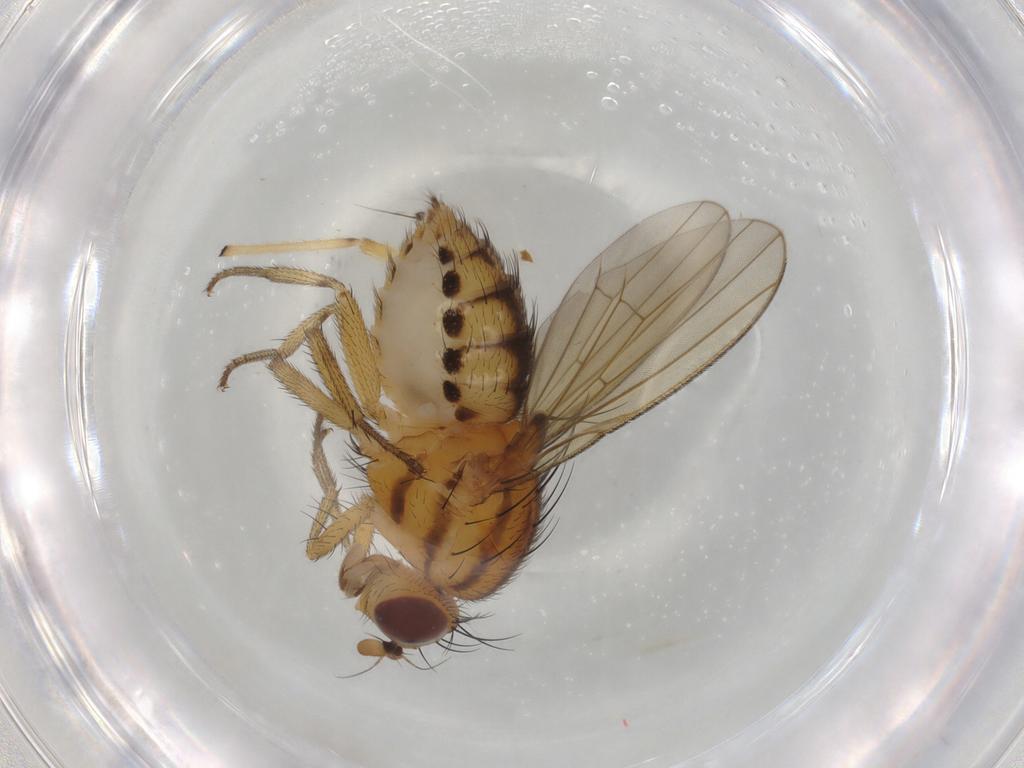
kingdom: Animalia
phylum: Arthropoda
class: Insecta
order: Diptera
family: Chironomidae
